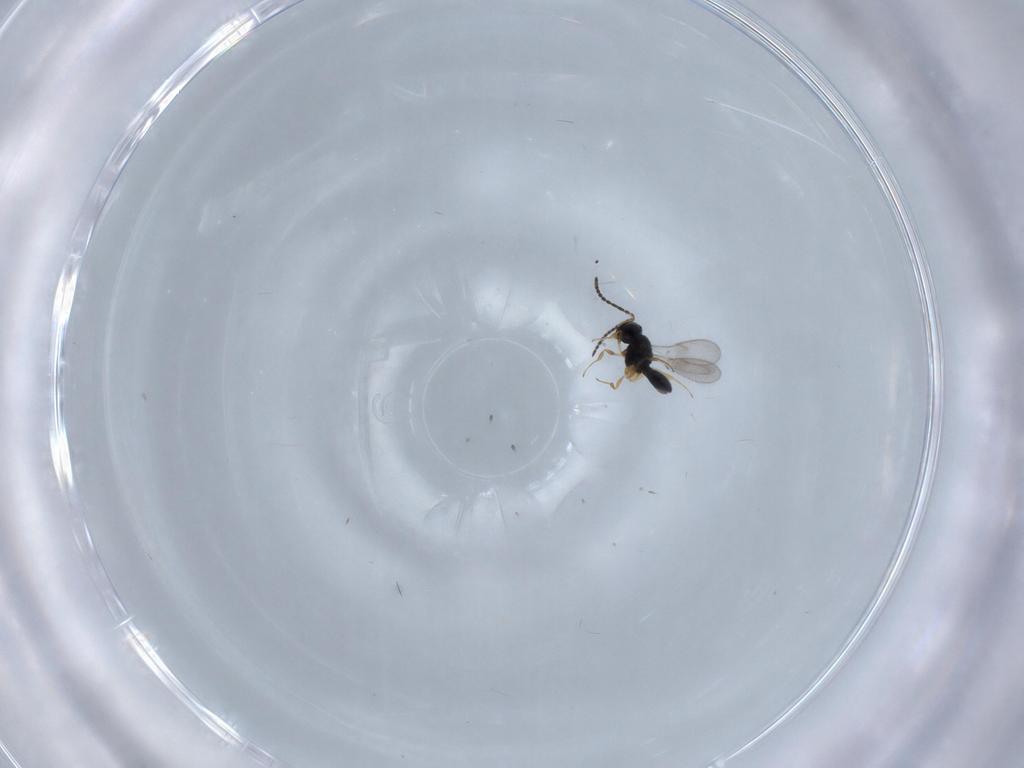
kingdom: Animalia
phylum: Arthropoda
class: Insecta
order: Hymenoptera
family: Scelionidae
